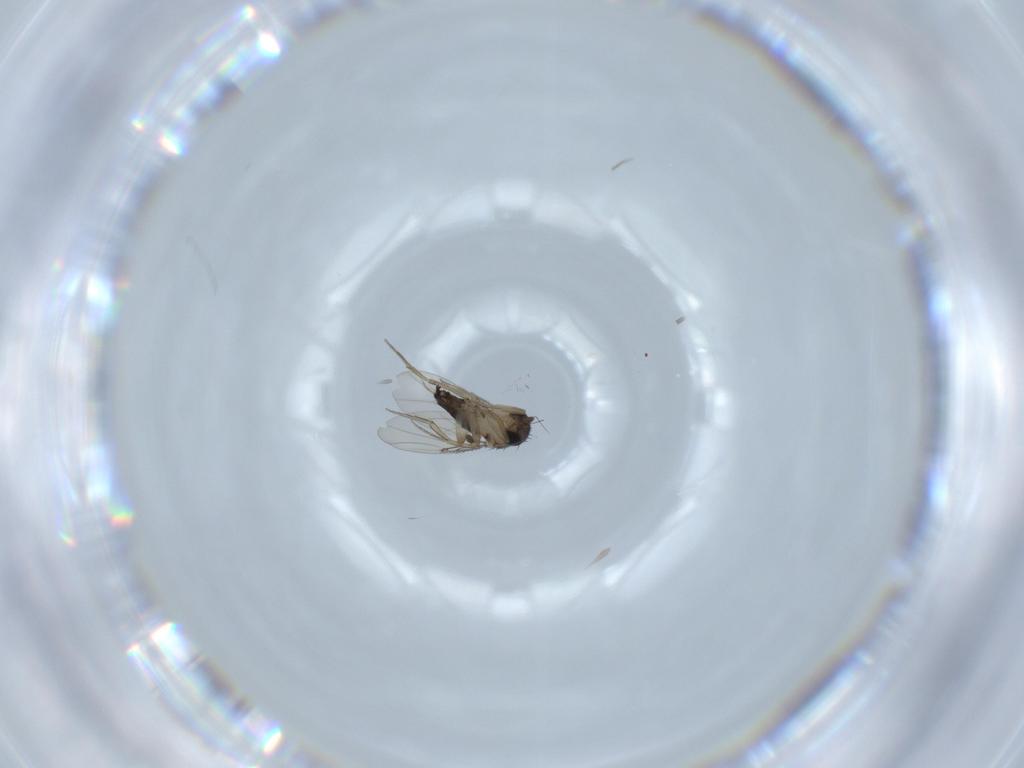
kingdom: Animalia
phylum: Arthropoda
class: Insecta
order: Diptera
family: Phoridae
